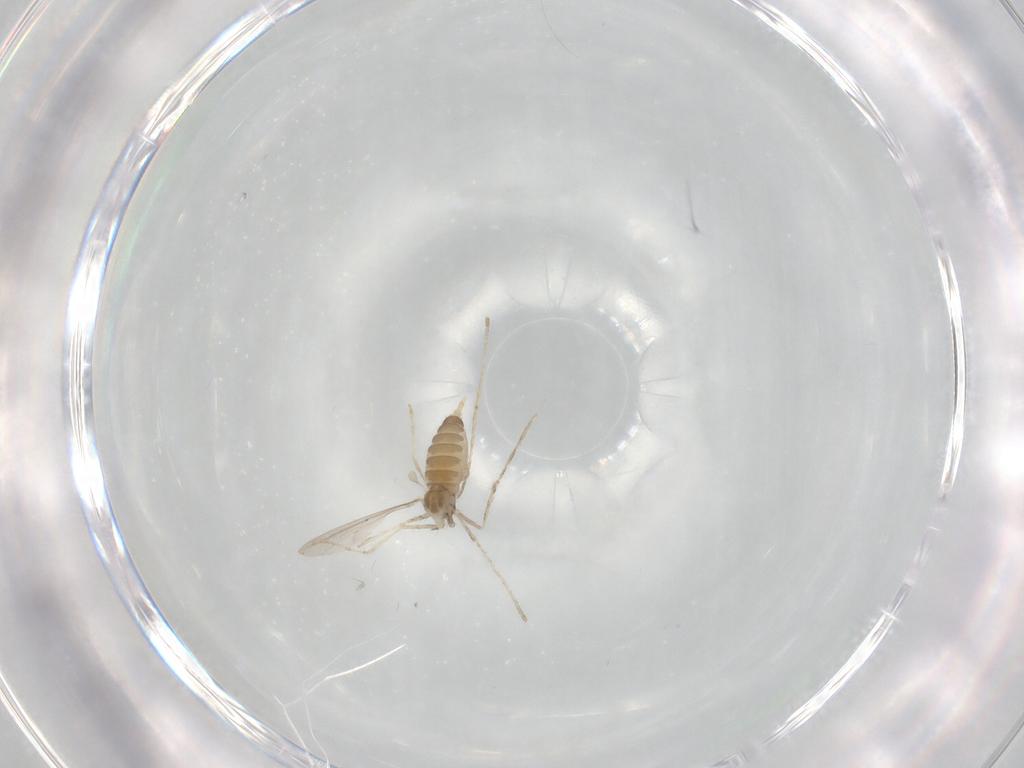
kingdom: Animalia
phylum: Arthropoda
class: Insecta
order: Diptera
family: Cecidomyiidae
